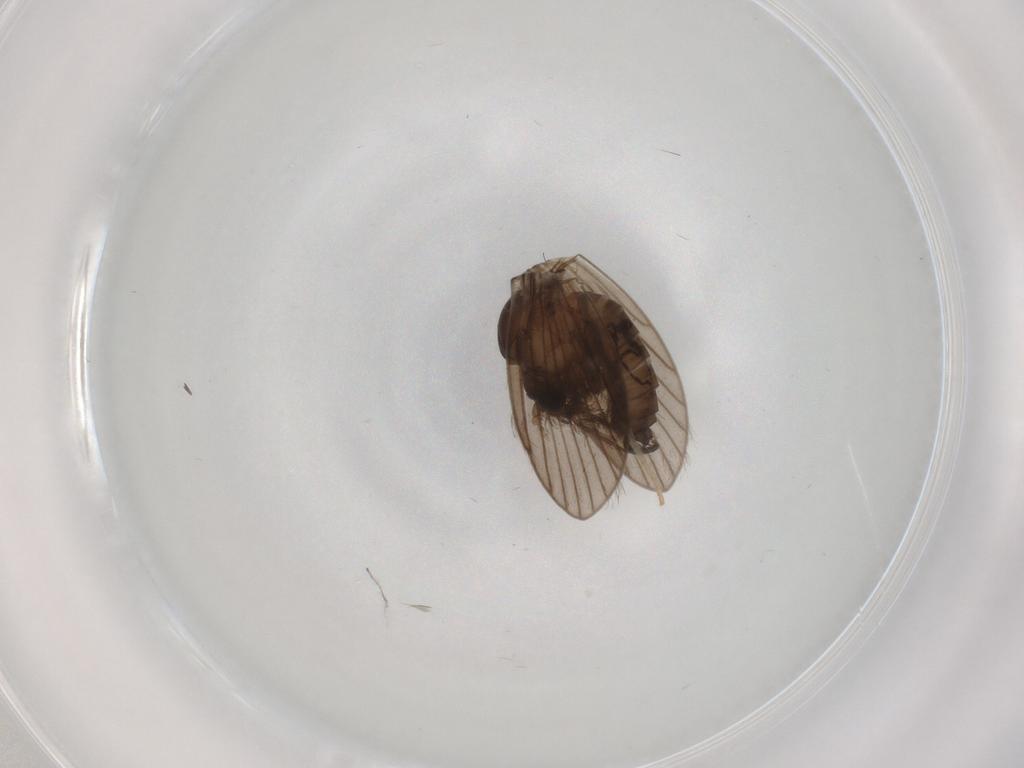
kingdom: Animalia
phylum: Arthropoda
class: Insecta
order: Diptera
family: Psychodidae
